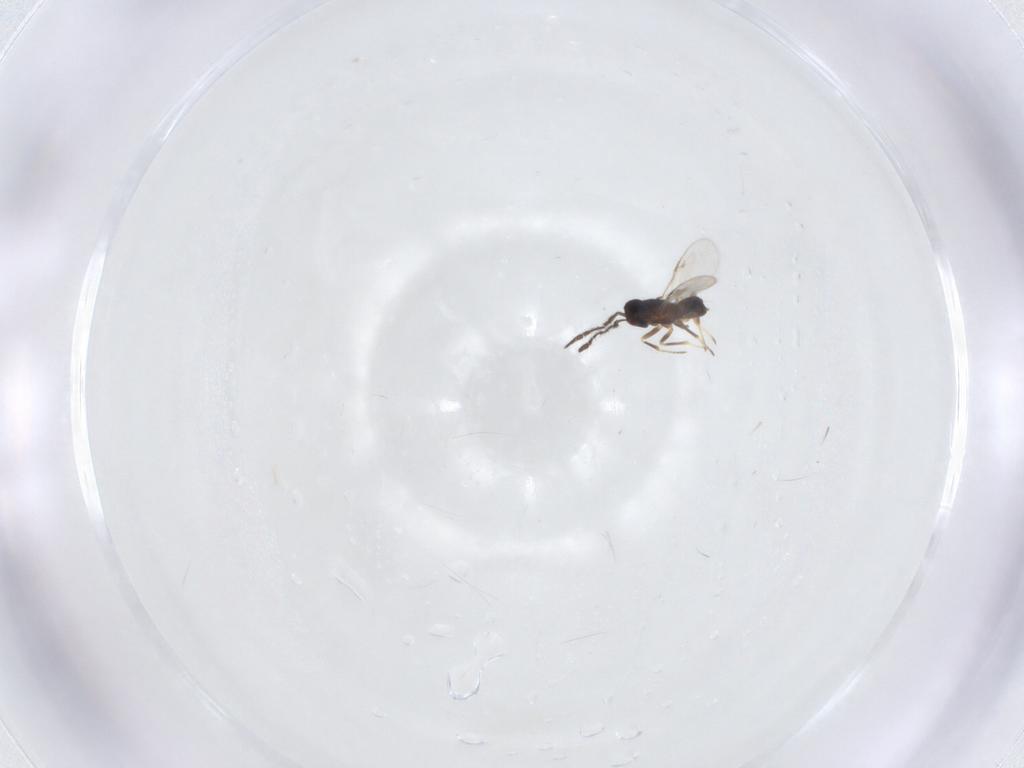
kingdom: Animalia
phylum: Arthropoda
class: Insecta
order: Hymenoptera
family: Encyrtidae
